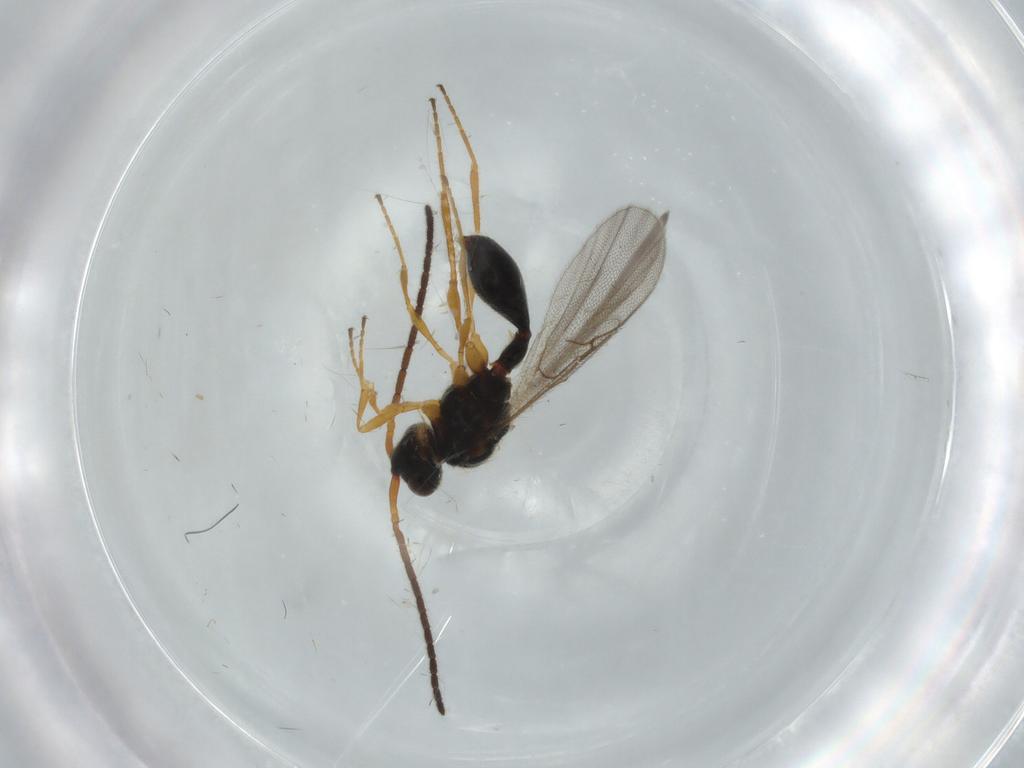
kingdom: Animalia
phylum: Arthropoda
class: Insecta
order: Hymenoptera
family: Diapriidae
